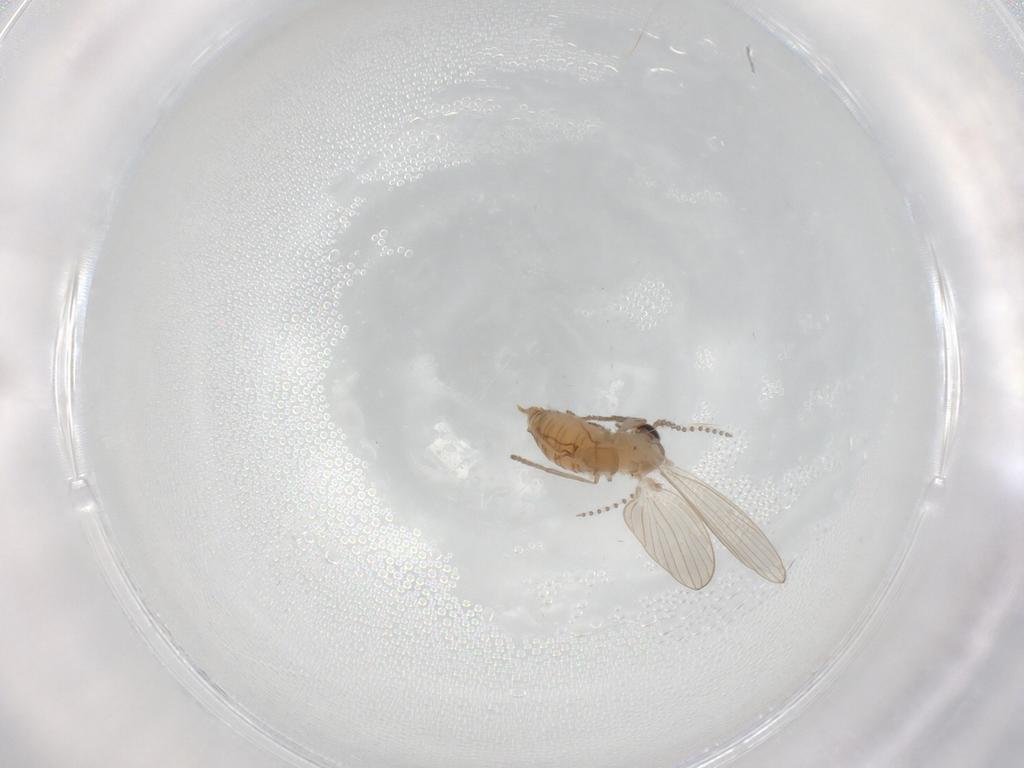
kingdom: Animalia
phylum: Arthropoda
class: Insecta
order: Diptera
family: Psychodidae
